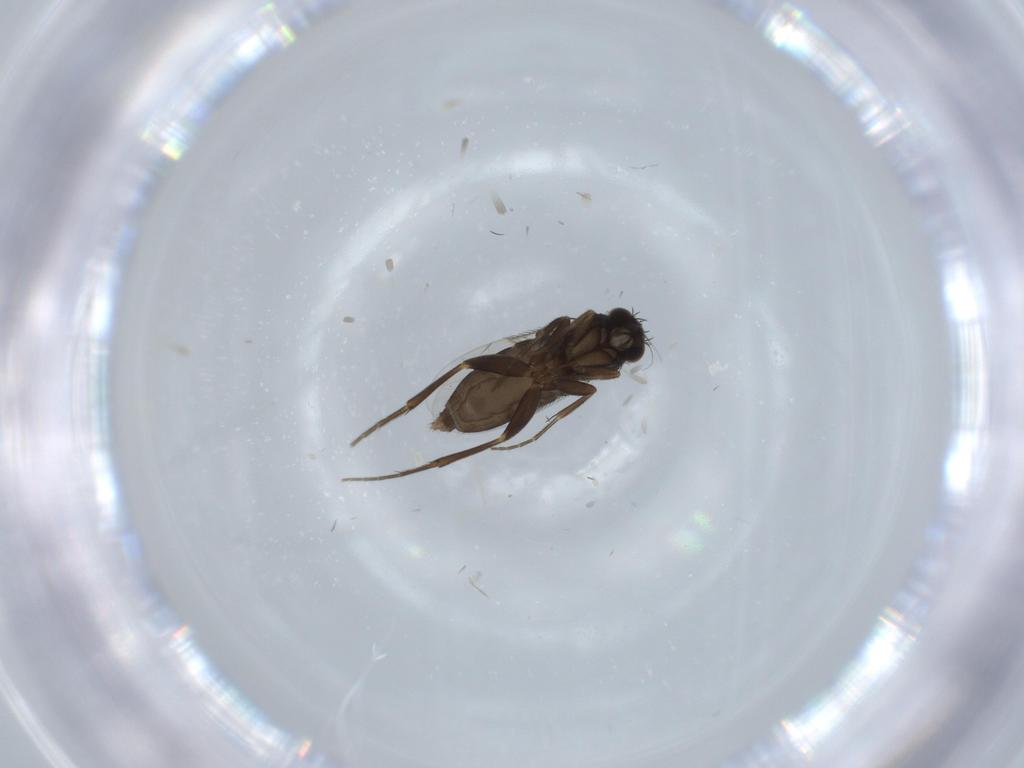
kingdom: Animalia
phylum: Arthropoda
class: Insecta
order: Diptera
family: Phoridae
